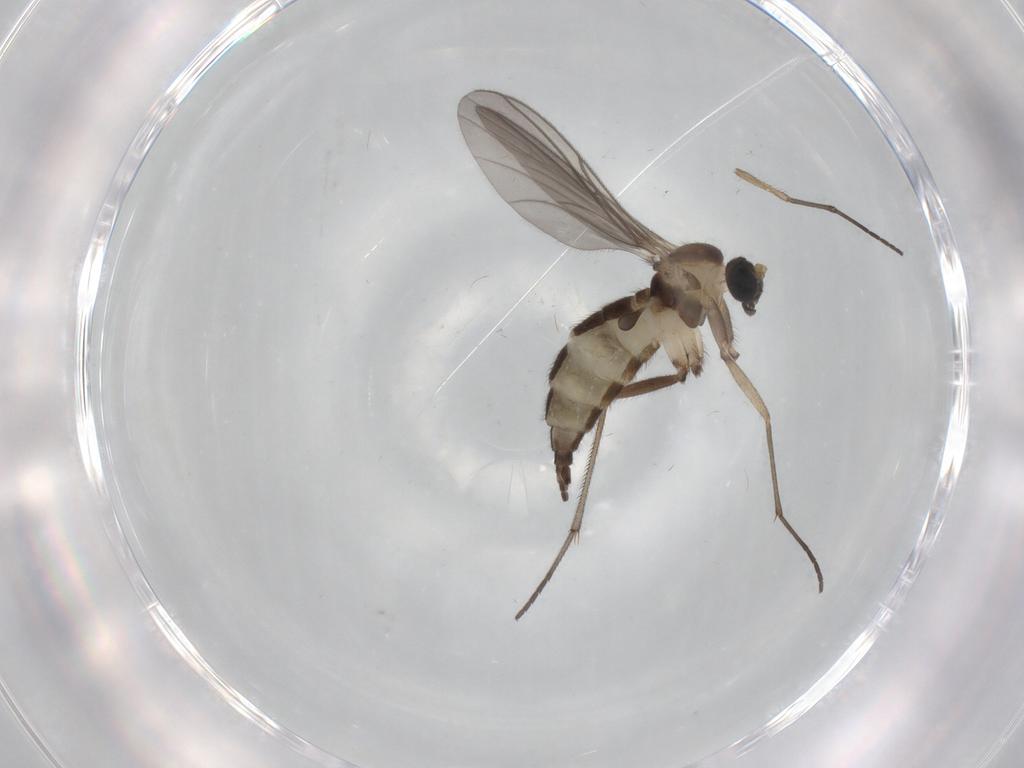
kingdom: Animalia
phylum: Arthropoda
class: Insecta
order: Diptera
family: Sciaridae
